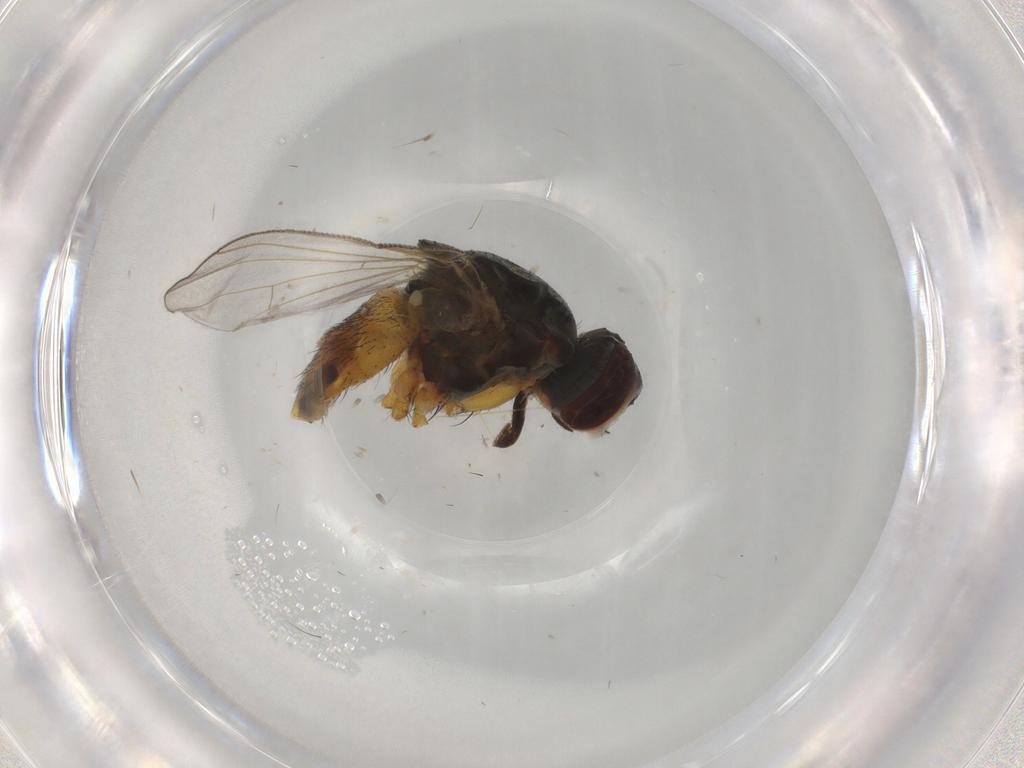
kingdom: Animalia
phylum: Arthropoda
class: Insecta
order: Diptera
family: Muscidae
